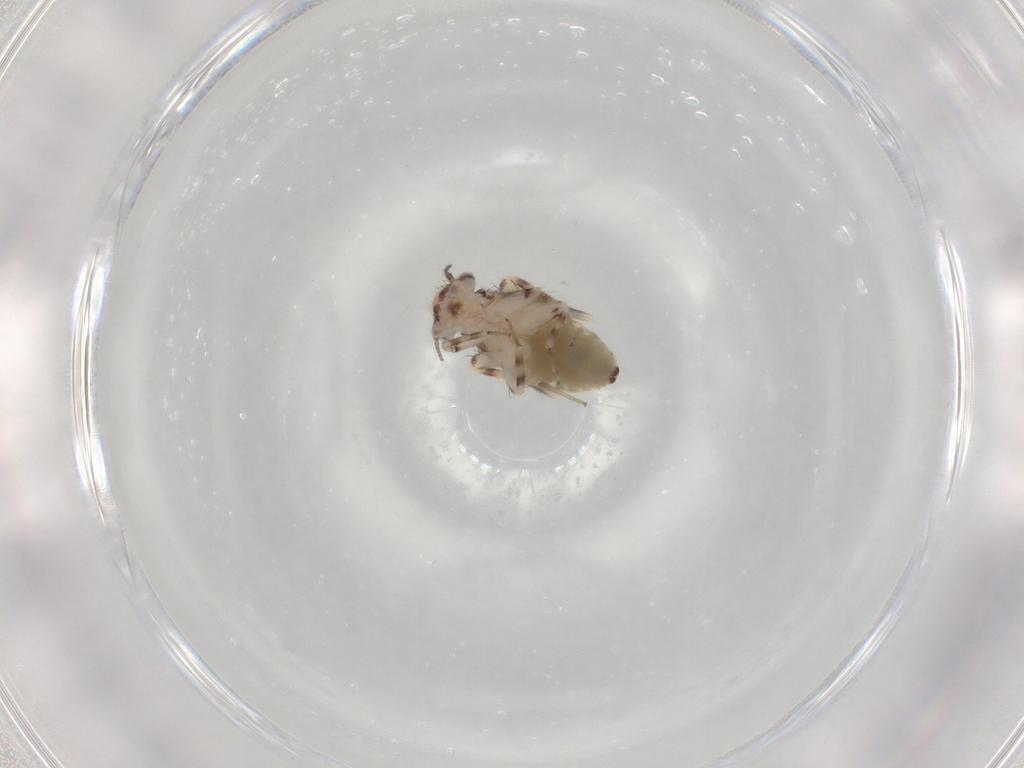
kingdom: Animalia
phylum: Arthropoda
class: Insecta
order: Psocodea
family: Lepidopsocidae
